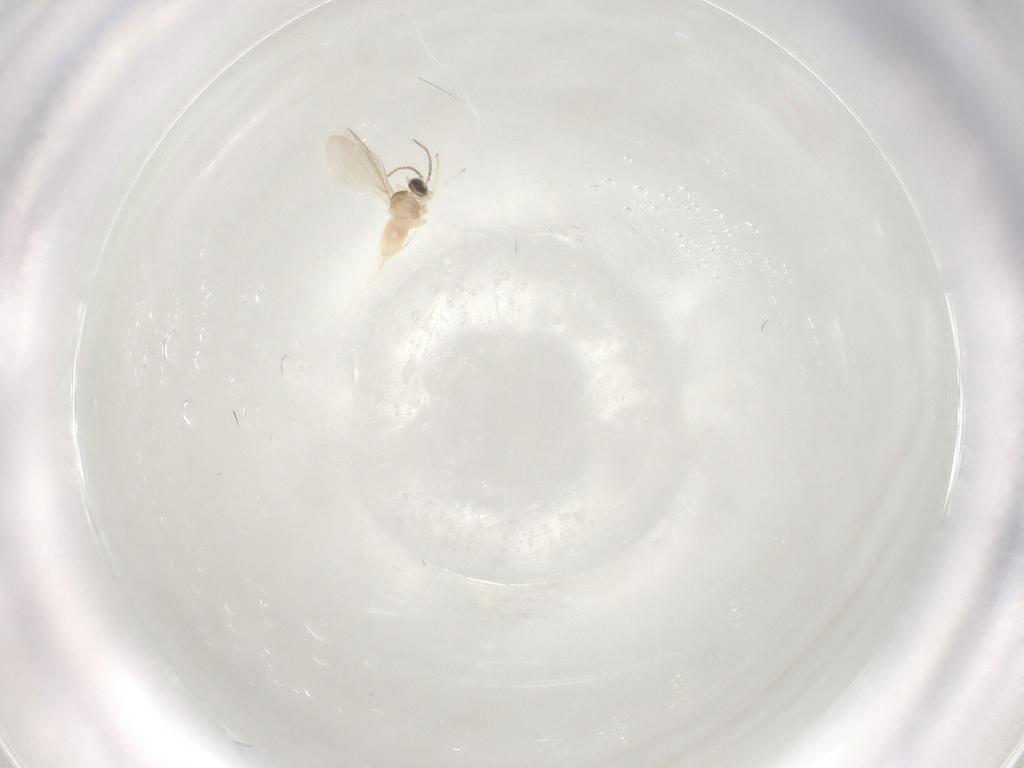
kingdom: Animalia
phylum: Arthropoda
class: Insecta
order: Diptera
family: Cecidomyiidae
